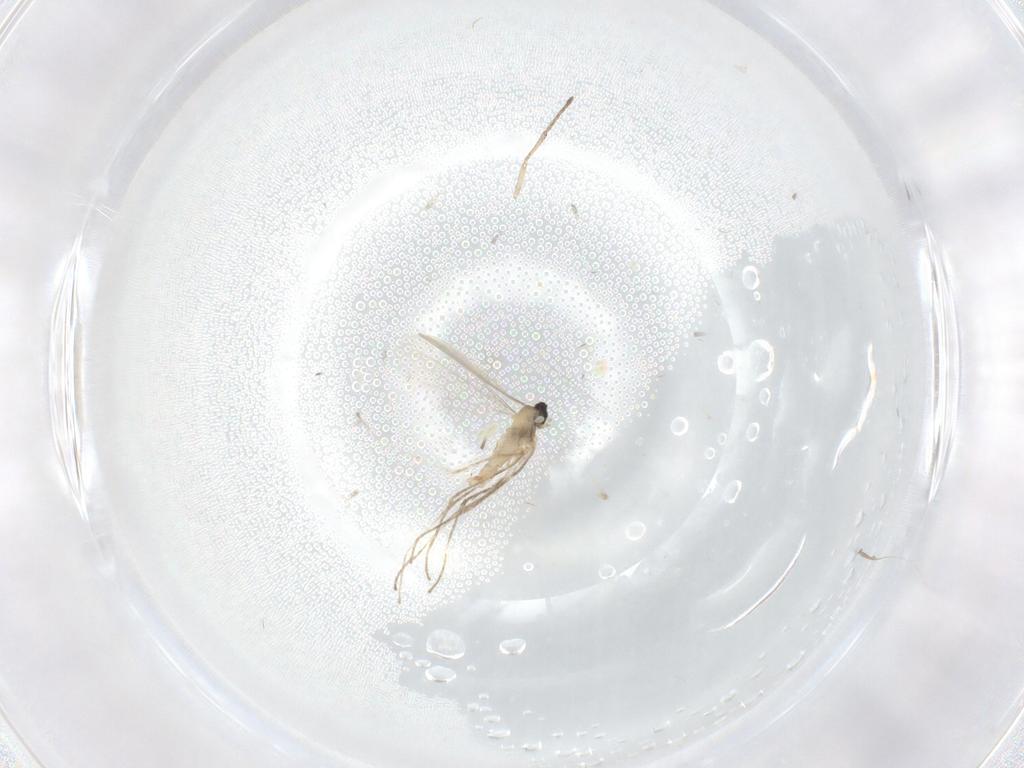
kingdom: Animalia
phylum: Arthropoda
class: Insecta
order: Diptera
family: Cecidomyiidae
